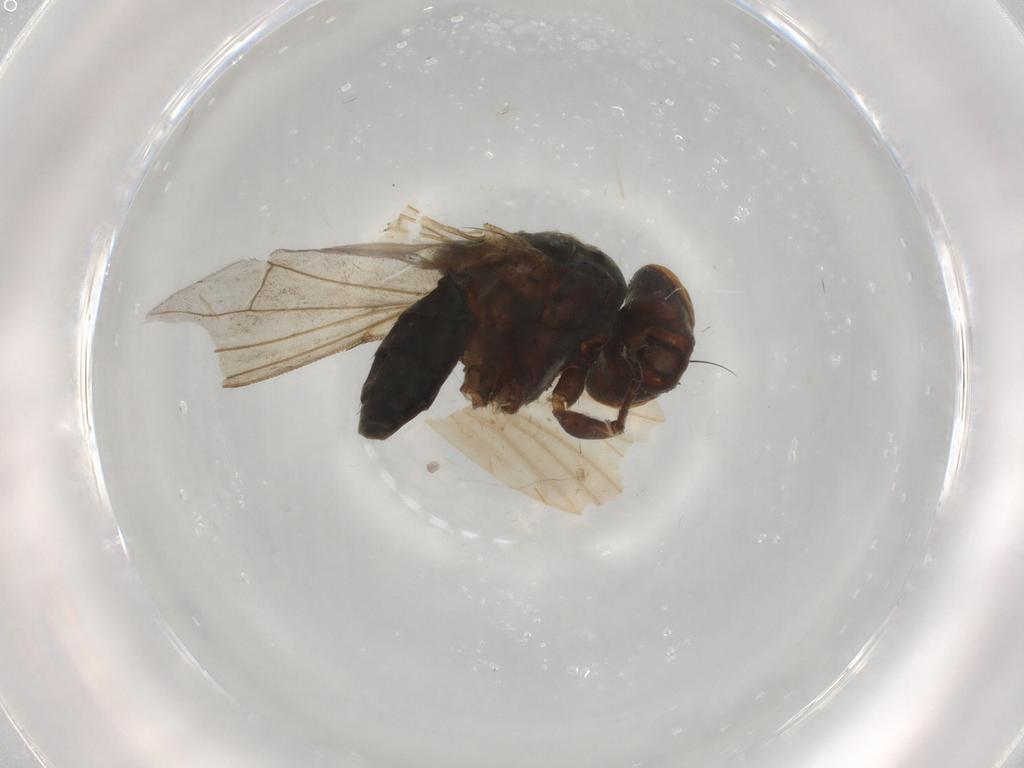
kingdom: Animalia
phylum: Arthropoda
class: Insecta
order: Diptera
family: Ephydridae
